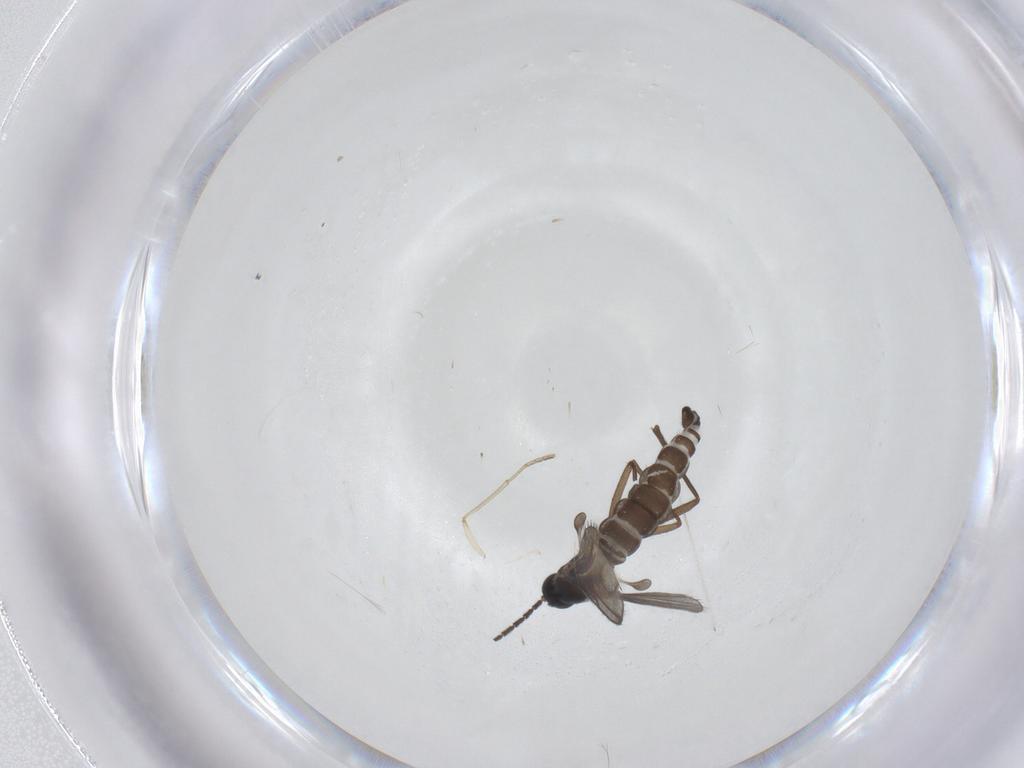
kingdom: Animalia
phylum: Arthropoda
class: Insecta
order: Diptera
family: Sciaridae
